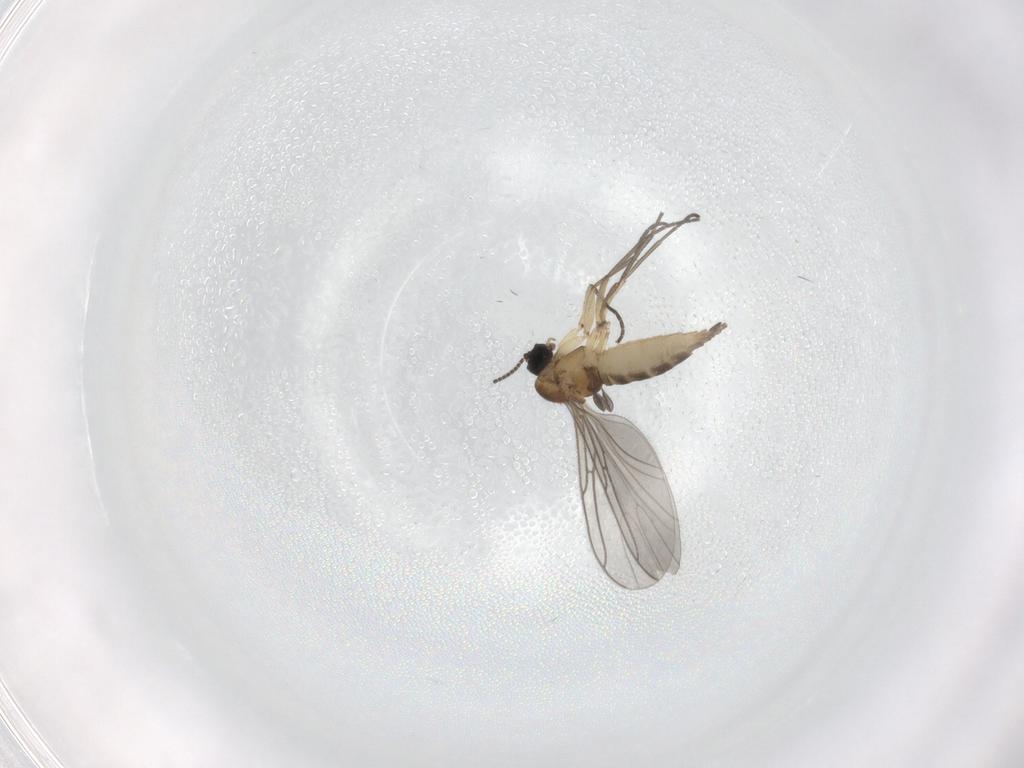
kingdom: Animalia
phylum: Arthropoda
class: Insecta
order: Diptera
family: Sciaridae
